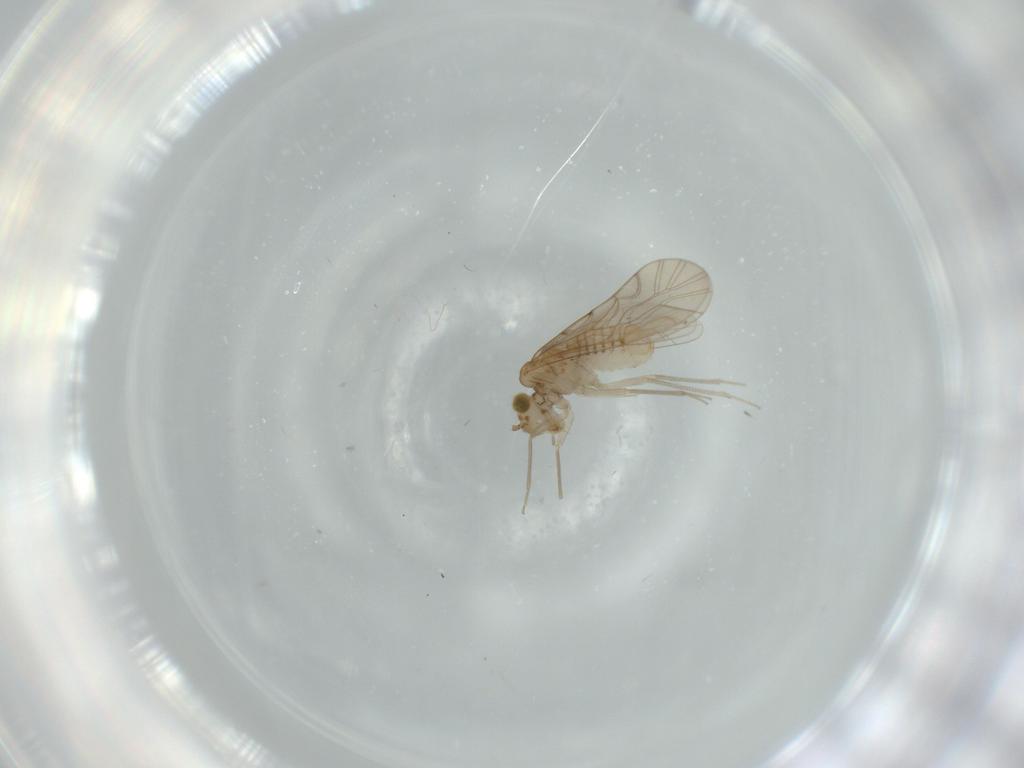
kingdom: Animalia
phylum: Arthropoda
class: Insecta
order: Psocodea
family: Lachesillidae
